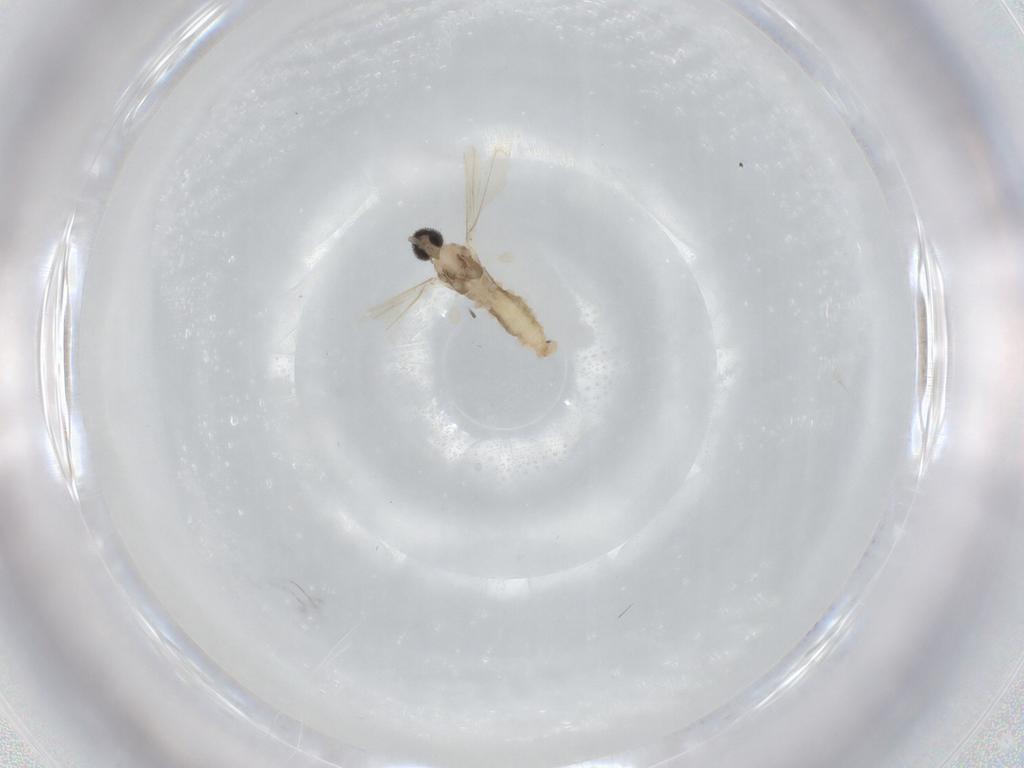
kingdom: Animalia
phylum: Arthropoda
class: Insecta
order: Diptera
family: Cecidomyiidae
